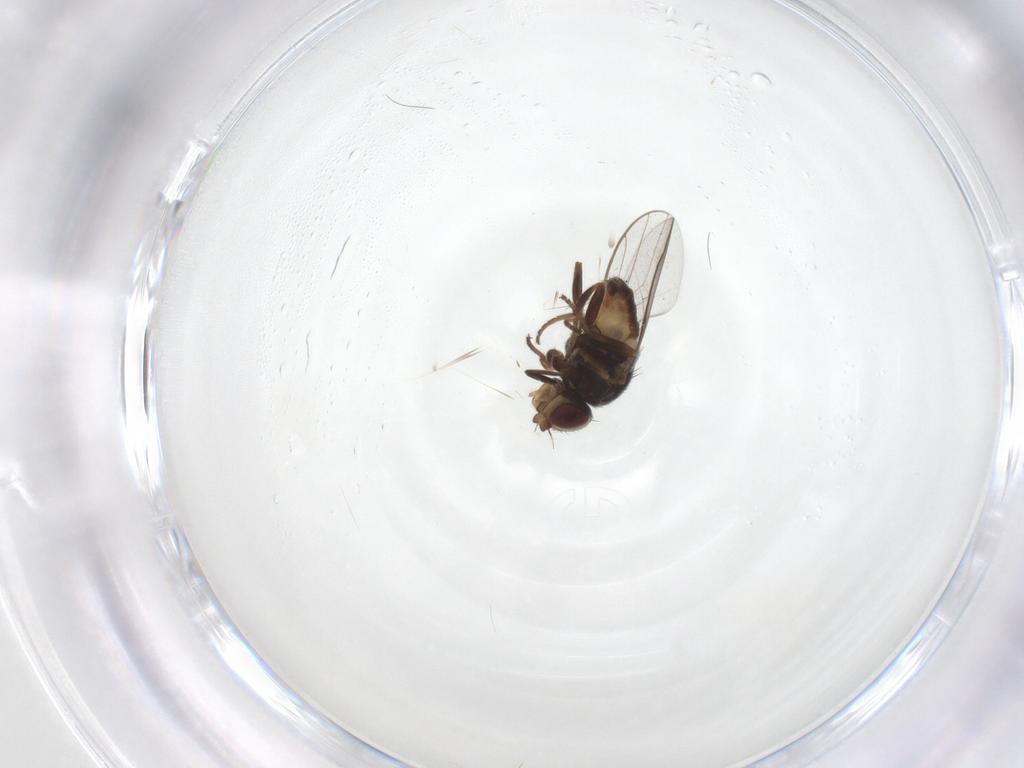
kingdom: Animalia
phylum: Arthropoda
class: Insecta
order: Diptera
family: Chloropidae
